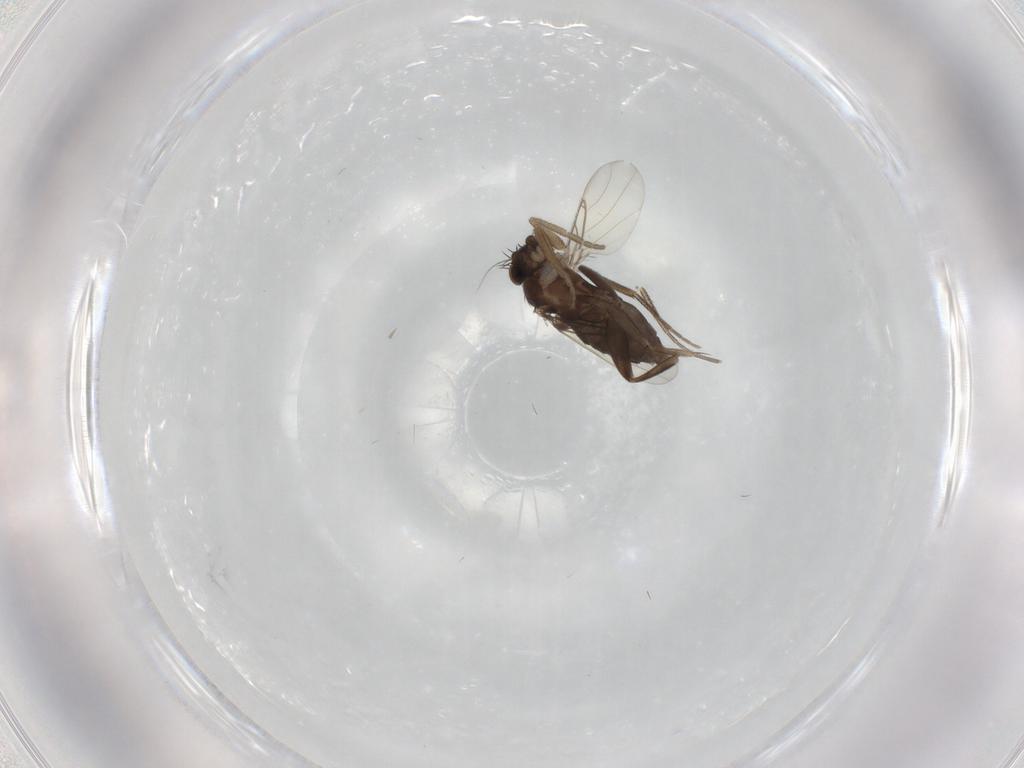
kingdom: Animalia
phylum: Arthropoda
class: Insecta
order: Diptera
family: Phoridae
